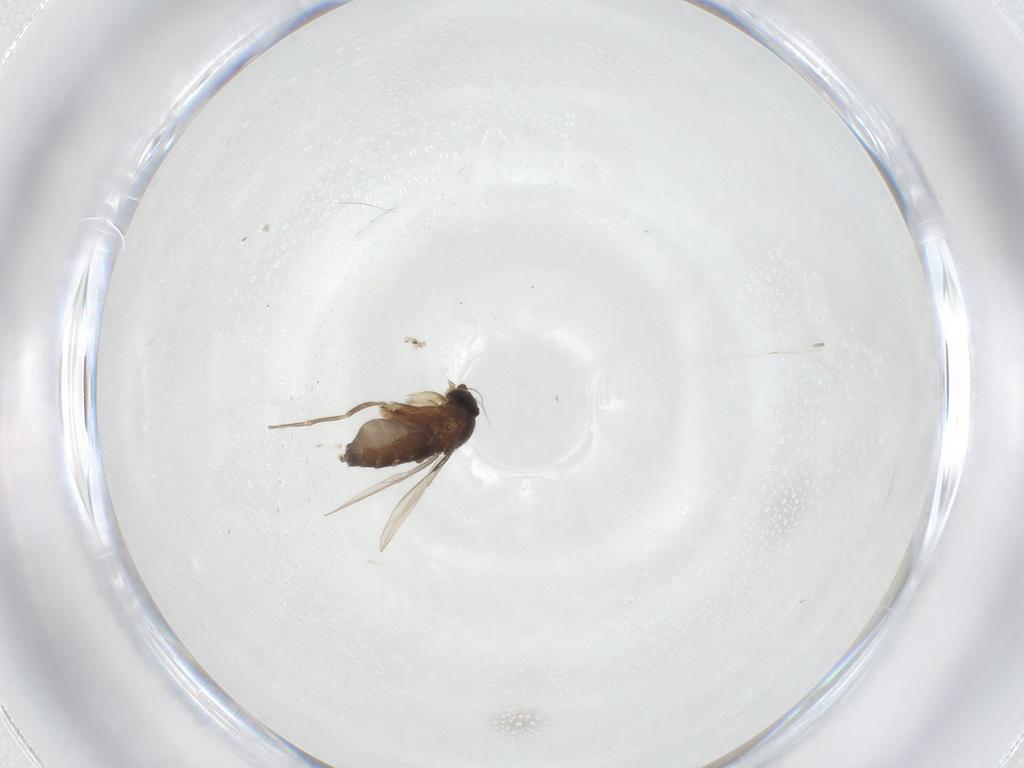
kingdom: Animalia
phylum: Arthropoda
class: Insecta
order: Diptera
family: Phoridae
